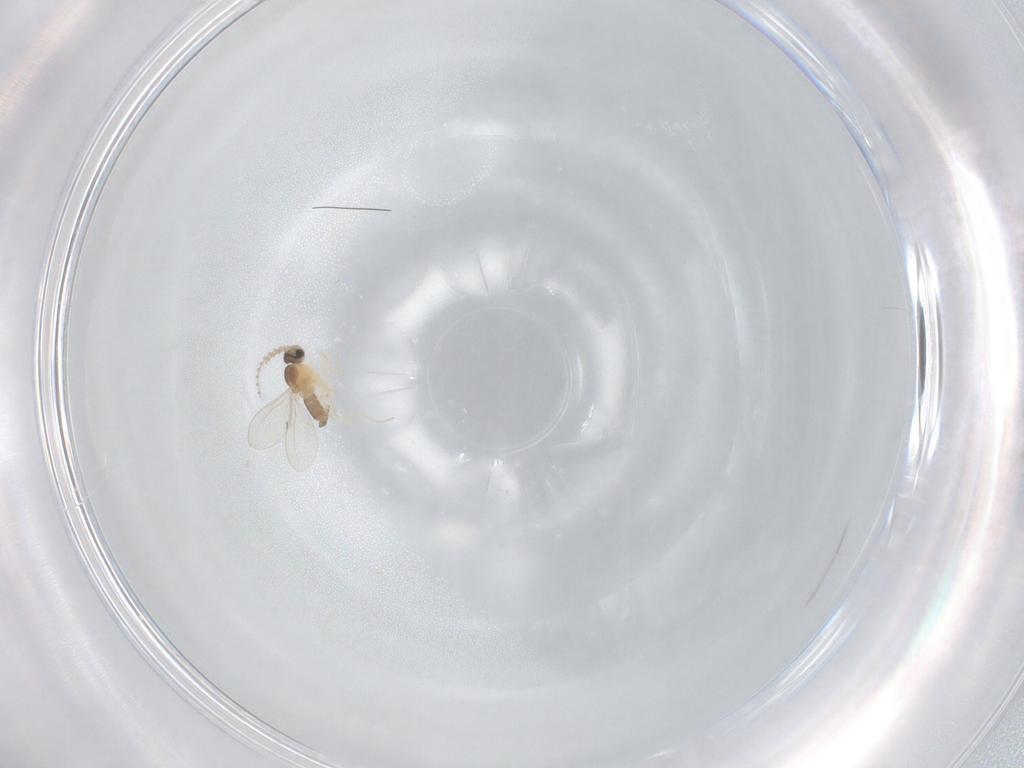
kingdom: Animalia
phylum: Arthropoda
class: Insecta
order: Diptera
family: Cecidomyiidae
